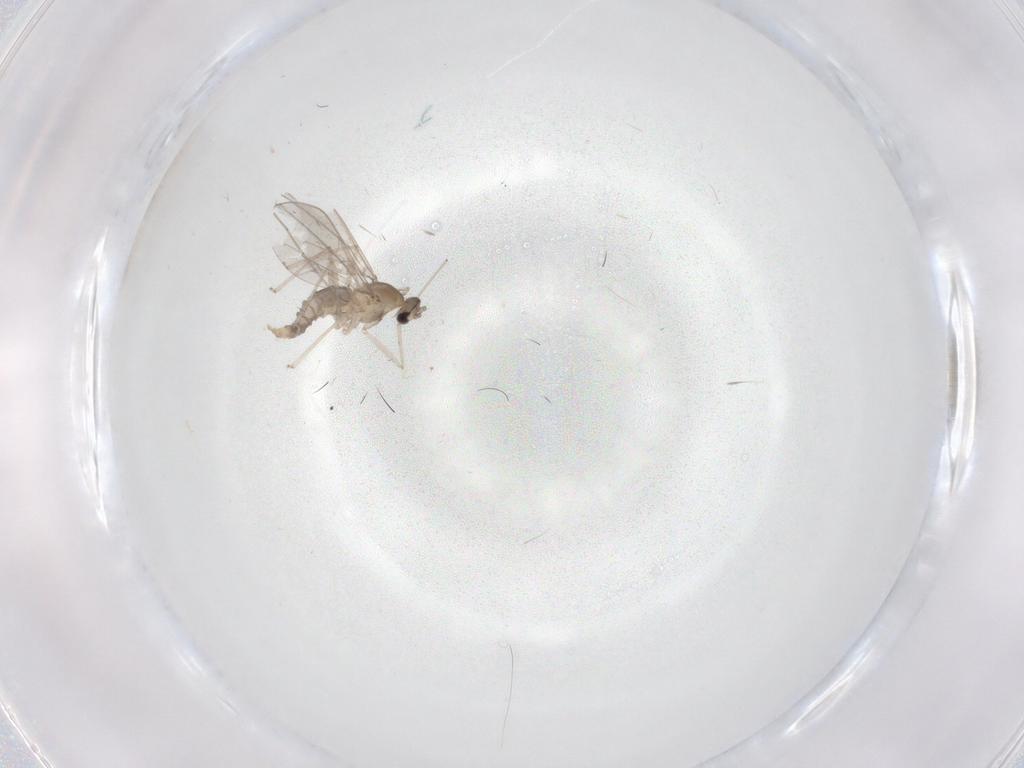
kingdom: Animalia
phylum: Arthropoda
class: Insecta
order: Diptera
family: Cecidomyiidae
